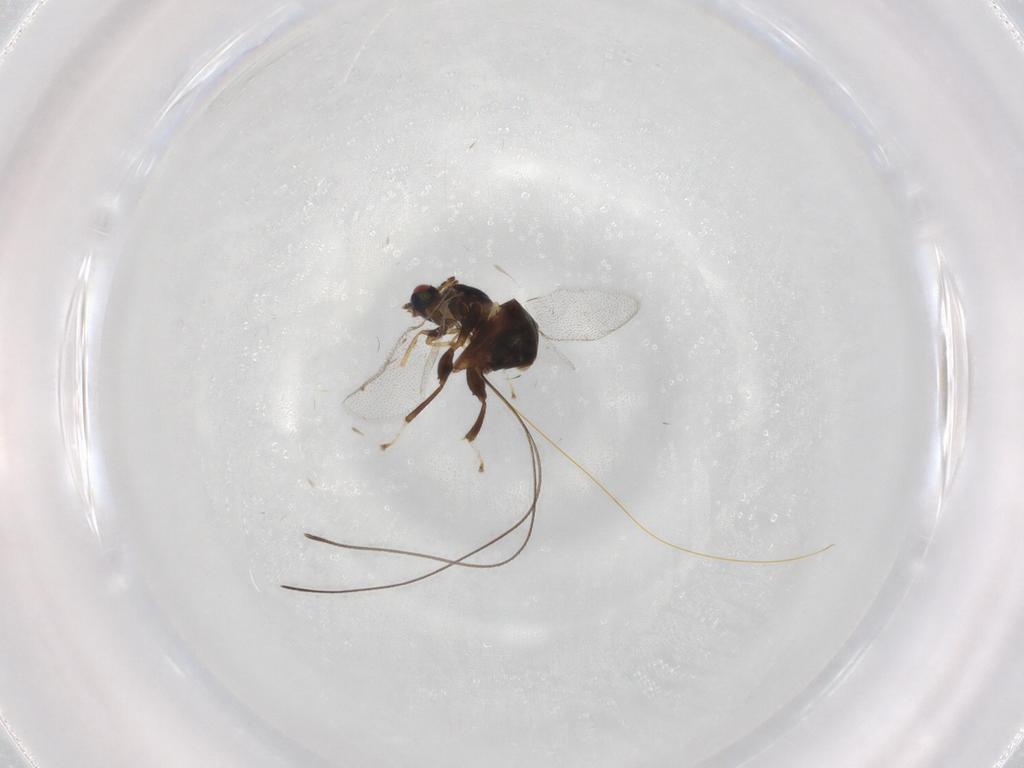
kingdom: Animalia
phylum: Arthropoda
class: Insecta
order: Hymenoptera
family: Torymidae
